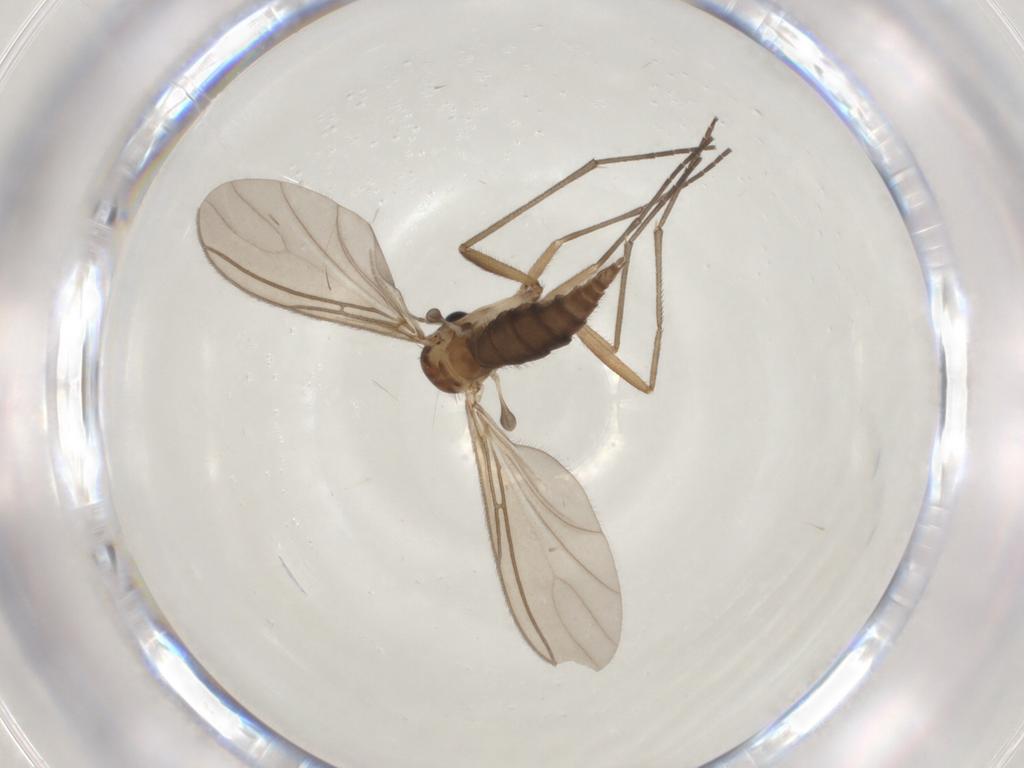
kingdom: Animalia
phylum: Arthropoda
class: Insecta
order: Diptera
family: Sciaridae
